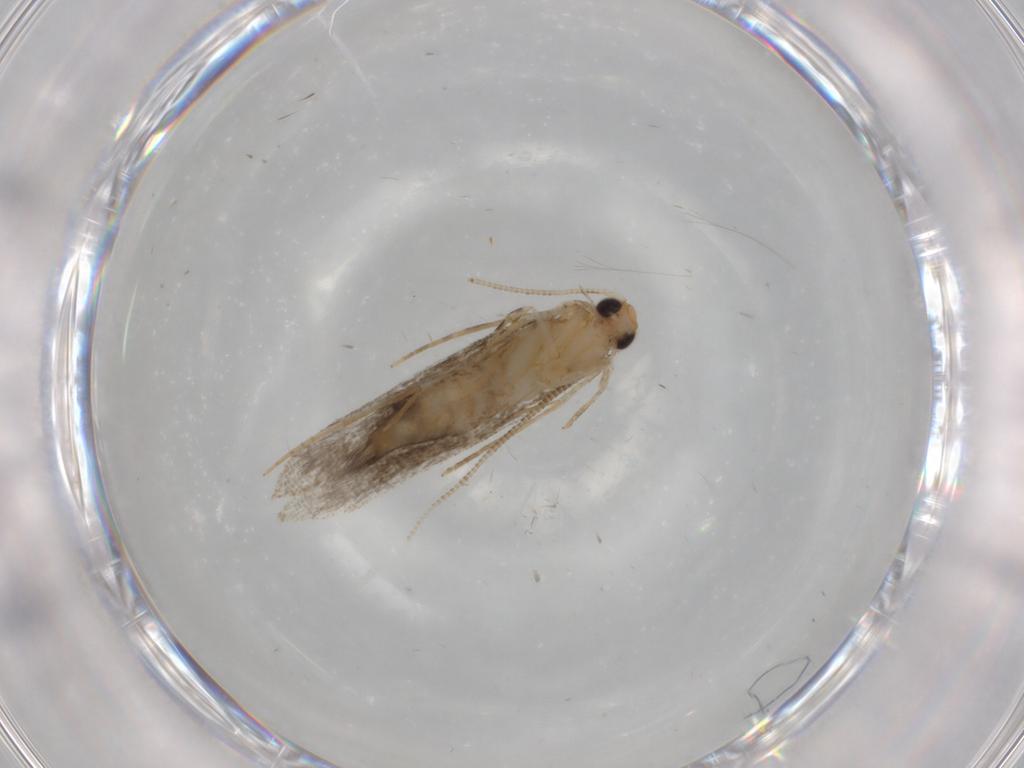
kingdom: Animalia
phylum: Arthropoda
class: Insecta
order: Lepidoptera
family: Tineidae
